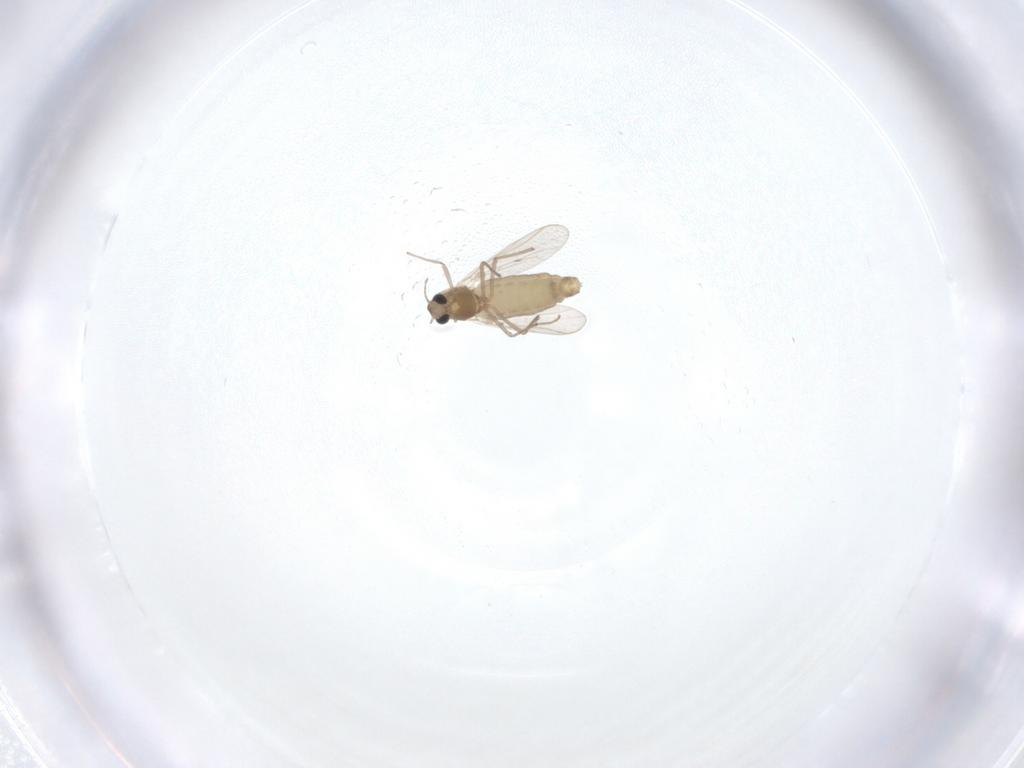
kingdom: Animalia
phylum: Arthropoda
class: Insecta
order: Diptera
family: Chironomidae
